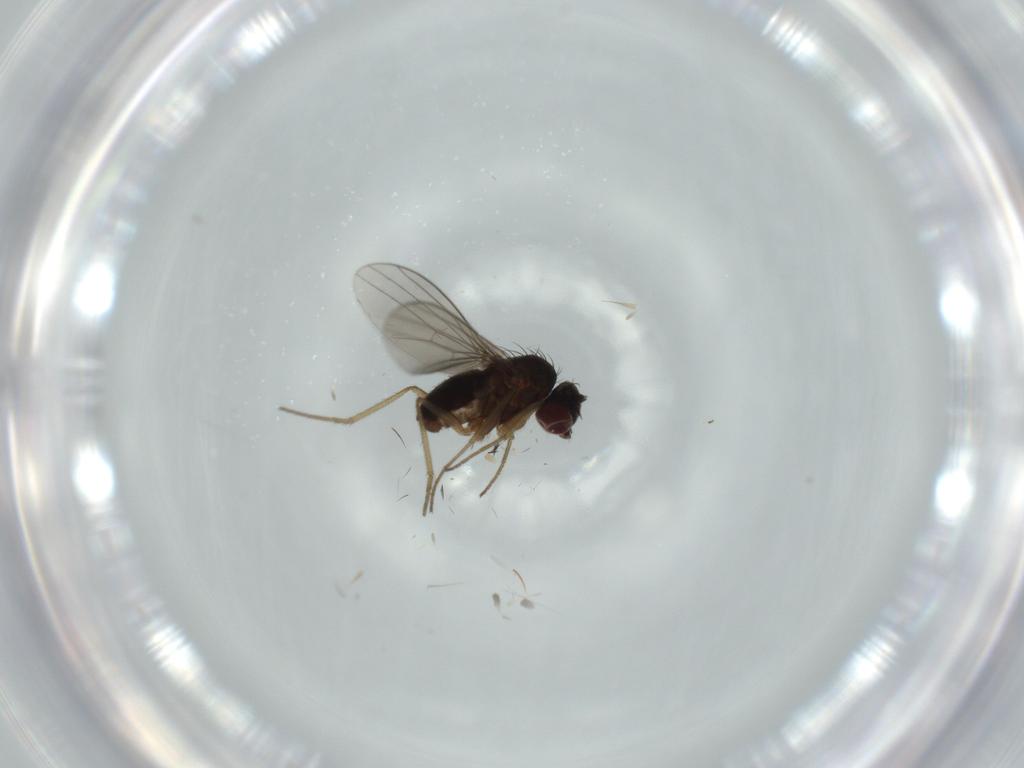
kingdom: Animalia
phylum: Arthropoda
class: Insecta
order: Diptera
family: Dolichopodidae
